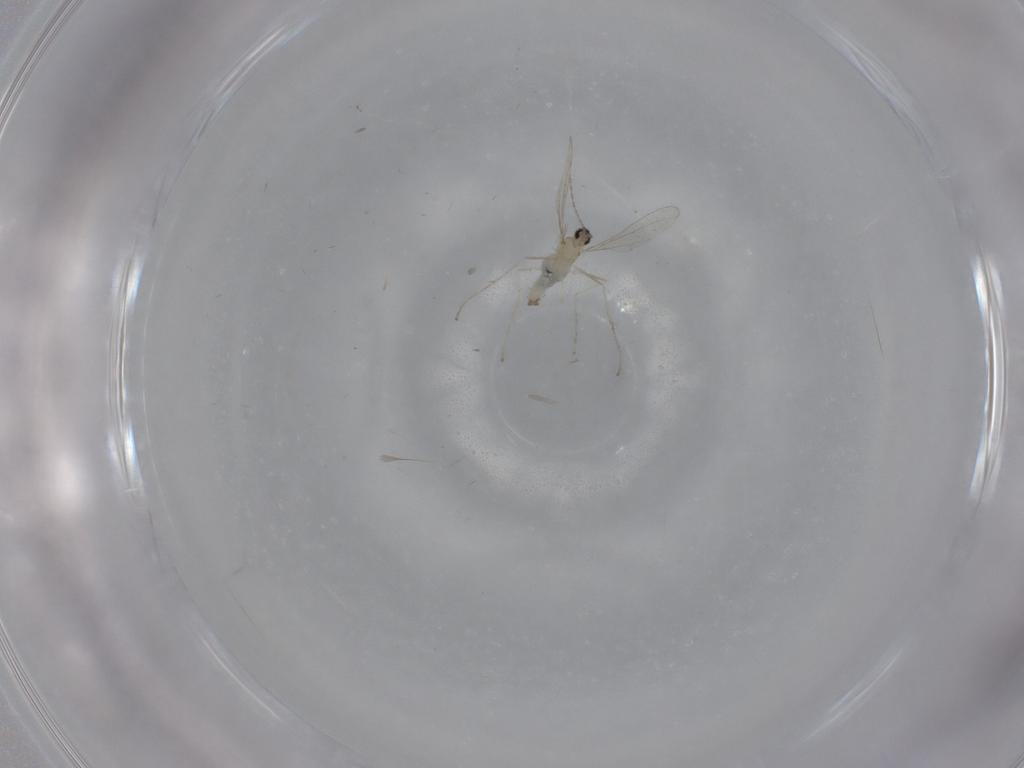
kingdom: Animalia
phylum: Arthropoda
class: Insecta
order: Diptera
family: Cecidomyiidae
